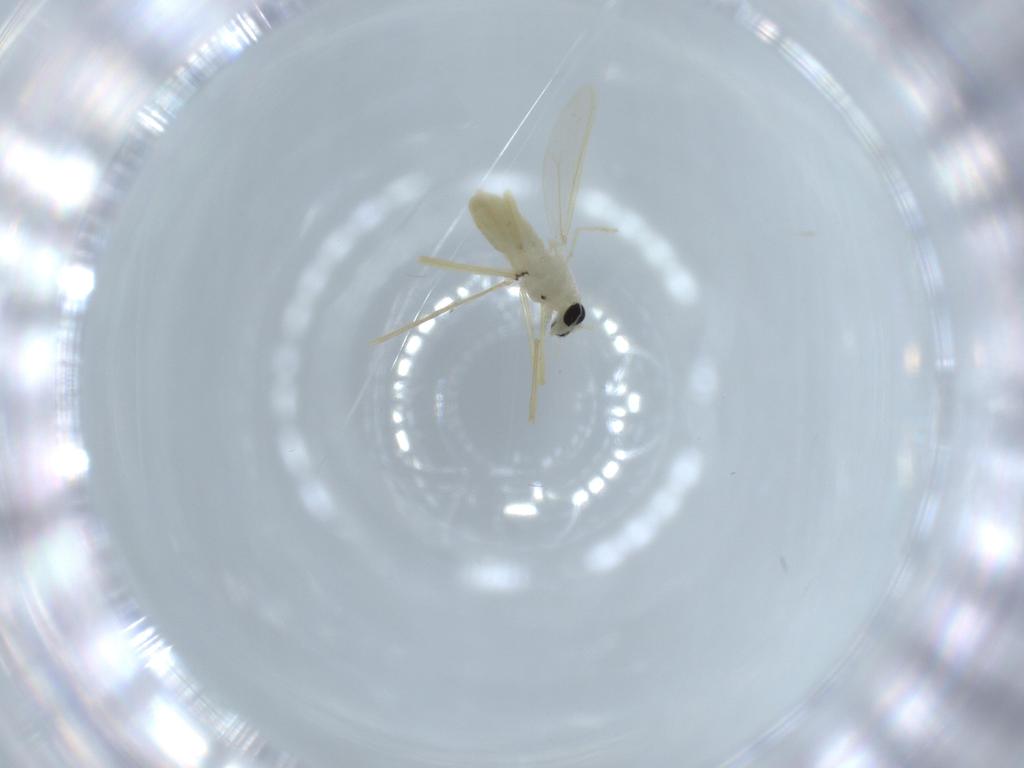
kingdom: Animalia
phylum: Arthropoda
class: Insecta
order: Diptera
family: Chironomidae
